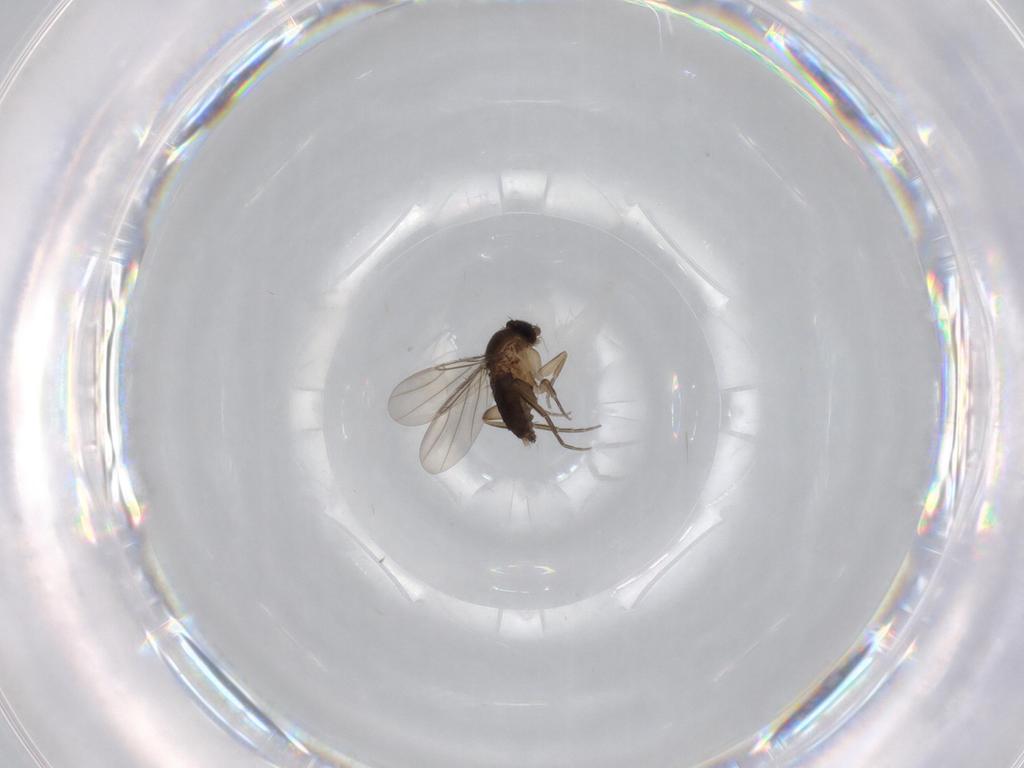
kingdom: Animalia
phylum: Arthropoda
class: Insecta
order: Diptera
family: Phoridae
